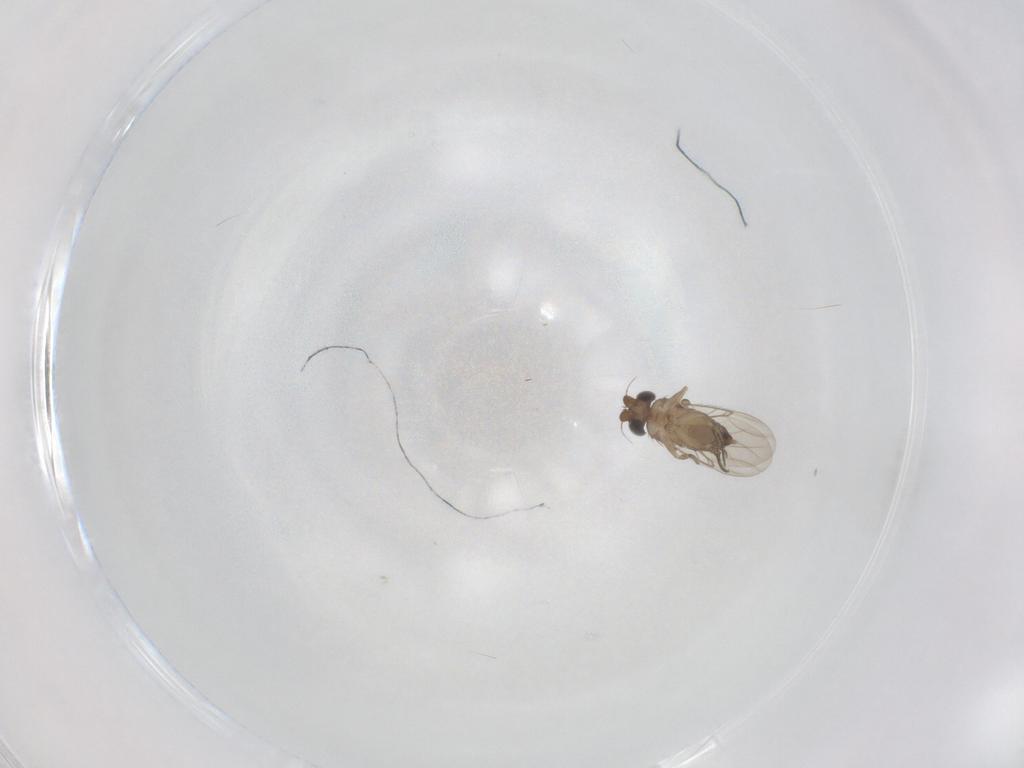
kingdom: Animalia
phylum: Arthropoda
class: Insecta
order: Diptera
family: Phoridae
